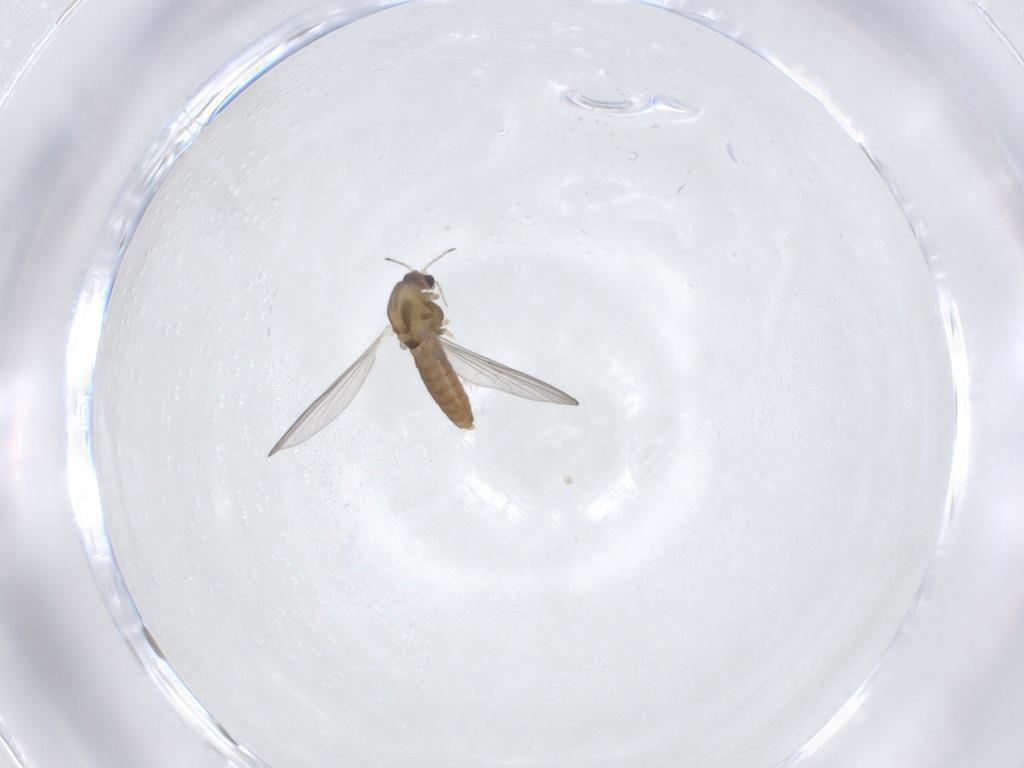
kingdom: Animalia
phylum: Arthropoda
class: Insecta
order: Diptera
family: Chironomidae
